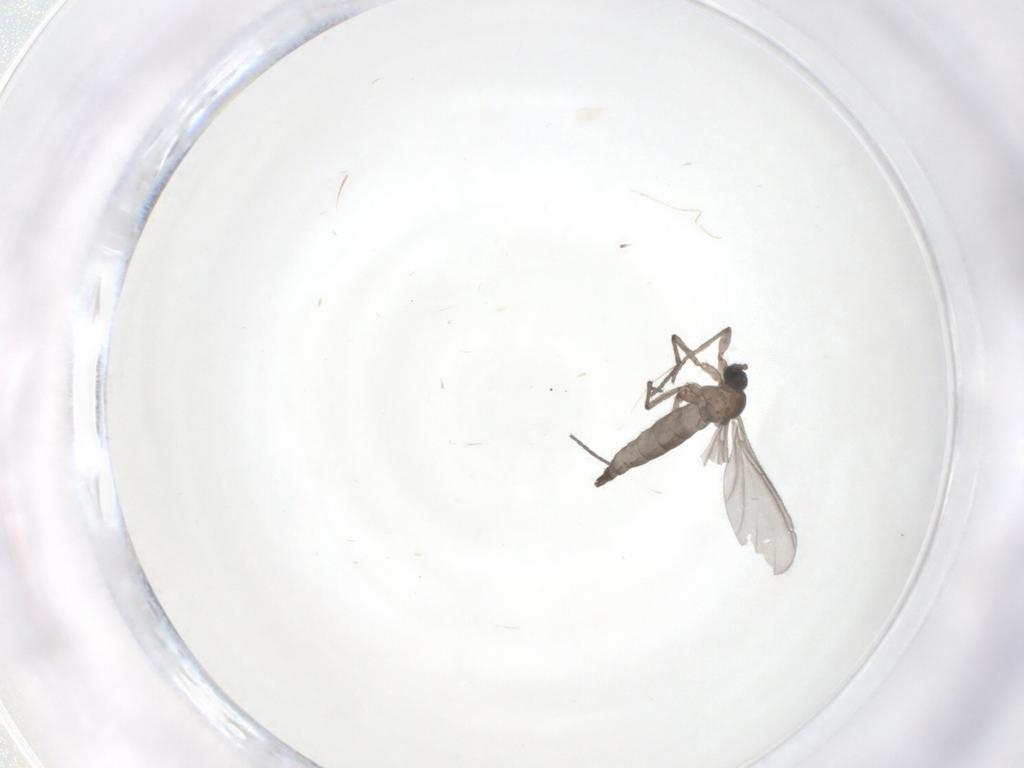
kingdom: Animalia
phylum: Arthropoda
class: Insecta
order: Diptera
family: Sciaridae
